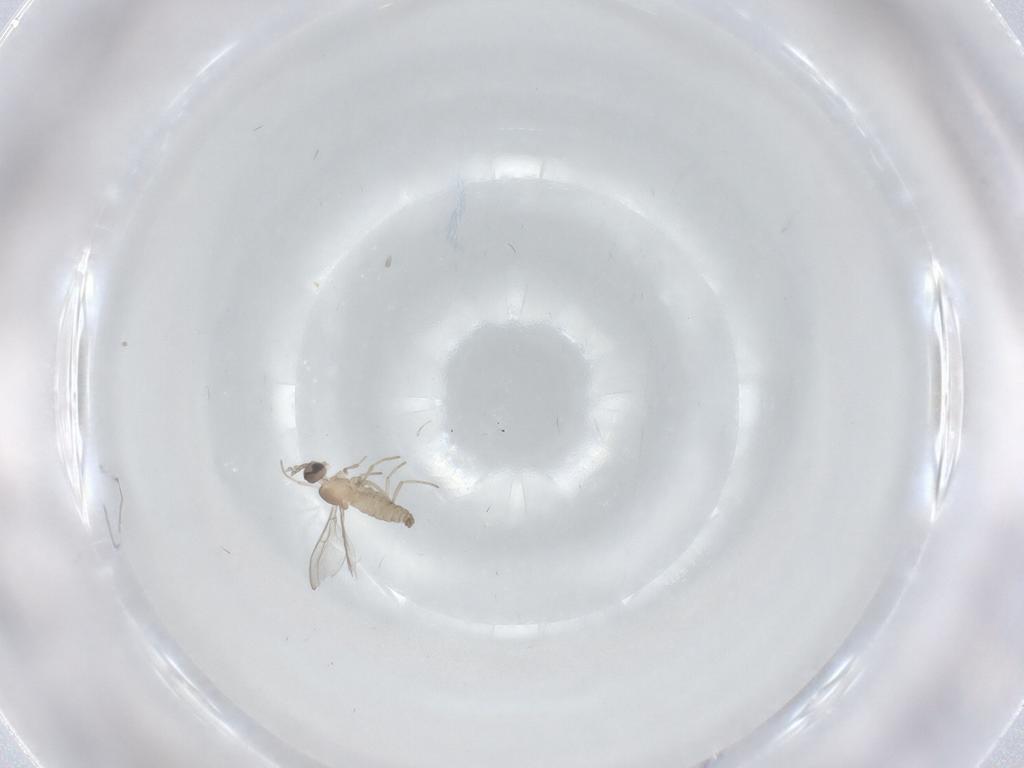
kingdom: Animalia
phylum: Arthropoda
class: Insecta
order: Diptera
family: Cecidomyiidae
